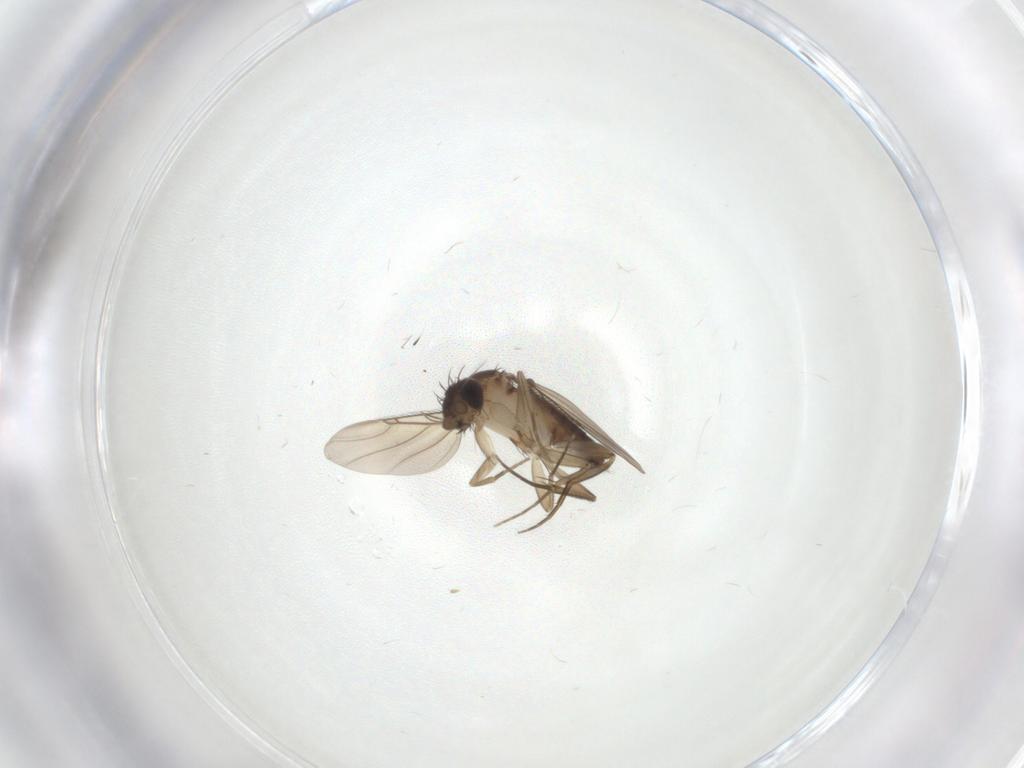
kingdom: Animalia
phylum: Arthropoda
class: Insecta
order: Diptera
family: Phoridae
